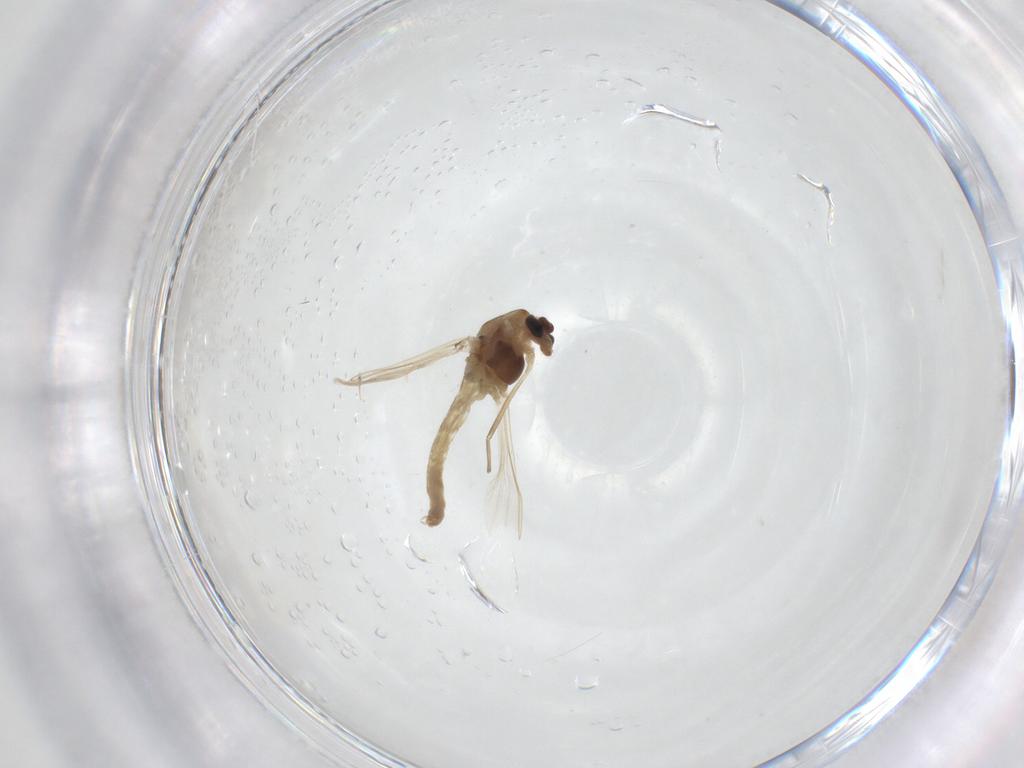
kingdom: Animalia
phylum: Arthropoda
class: Insecta
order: Diptera
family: Chironomidae
